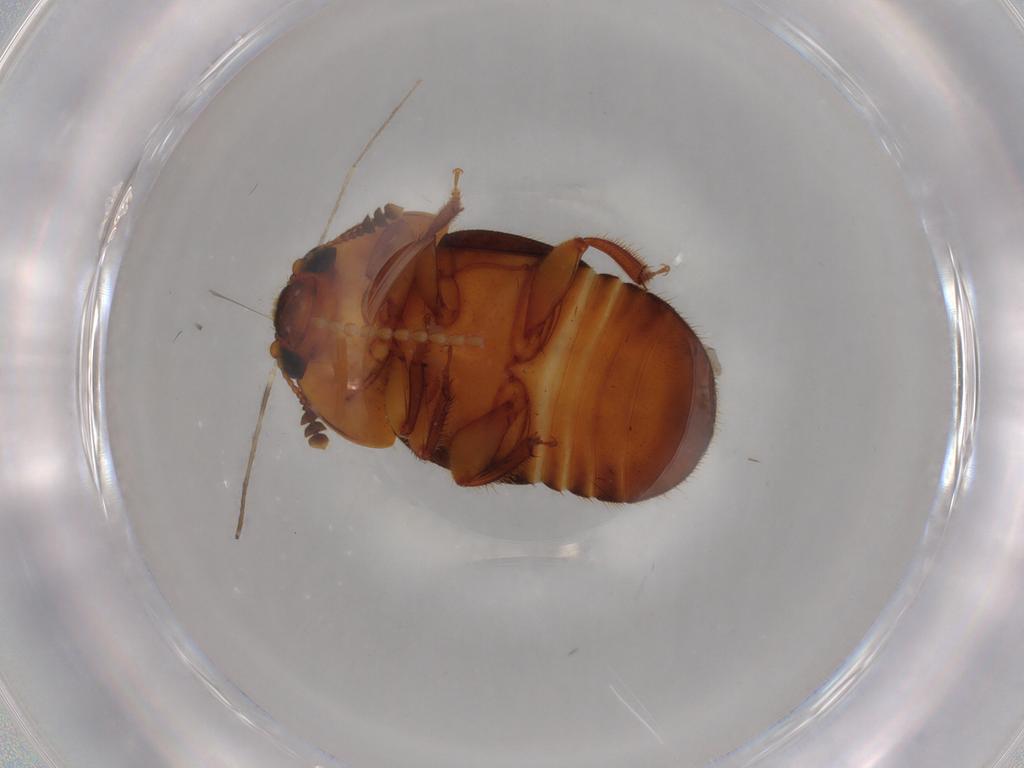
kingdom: Animalia
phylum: Arthropoda
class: Insecta
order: Coleoptera
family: Nitidulidae
